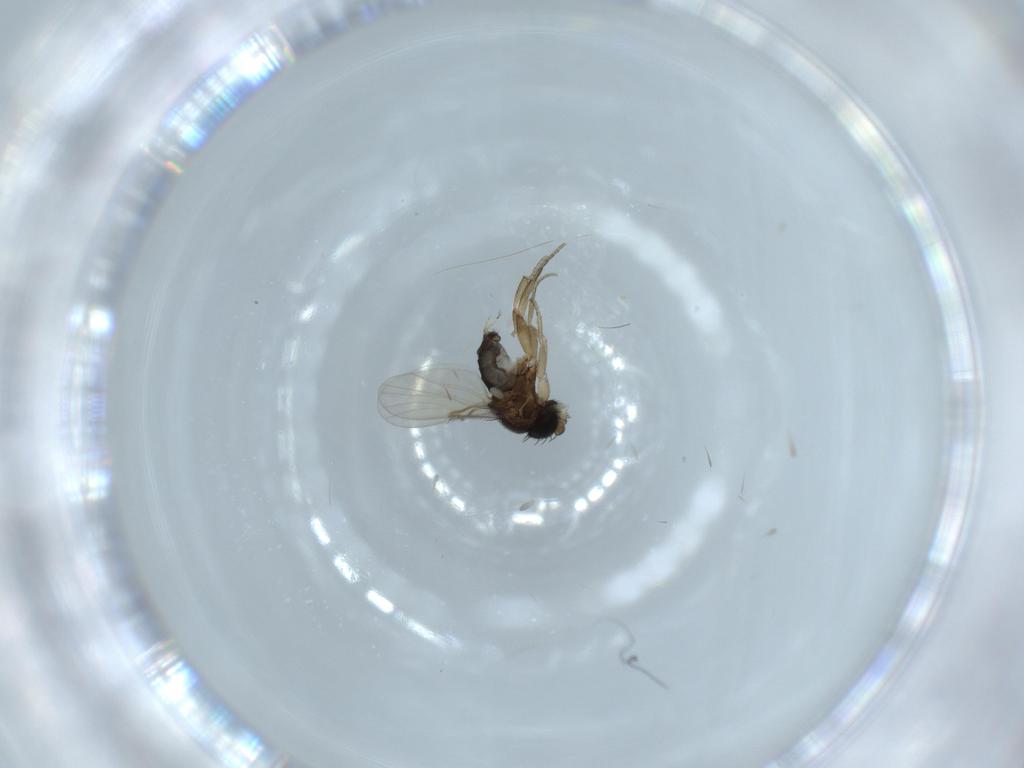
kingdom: Animalia
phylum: Arthropoda
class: Insecta
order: Diptera
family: Phoridae
